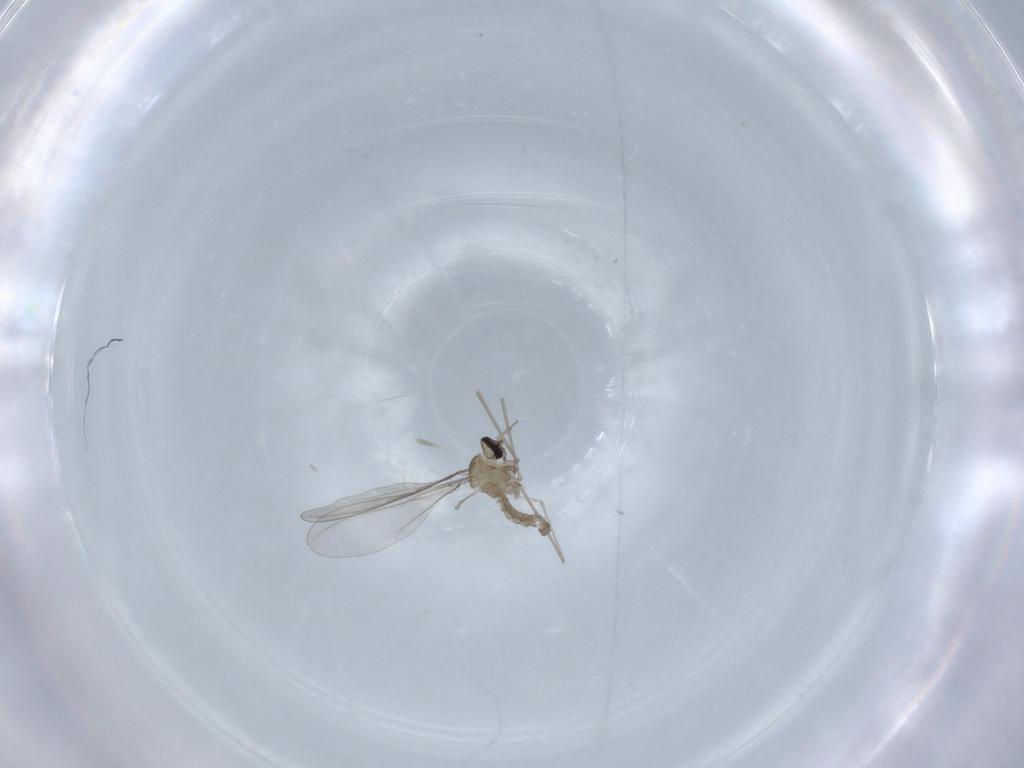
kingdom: Animalia
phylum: Arthropoda
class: Insecta
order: Diptera
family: Cecidomyiidae
